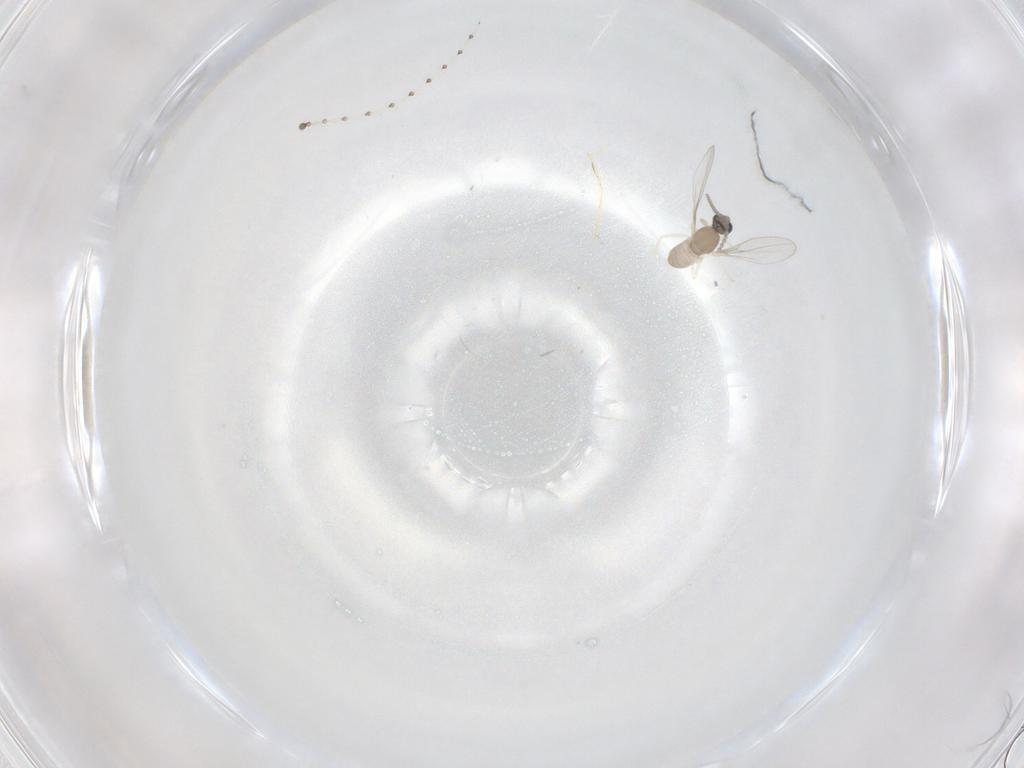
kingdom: Animalia
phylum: Arthropoda
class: Insecta
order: Diptera
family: Cecidomyiidae
